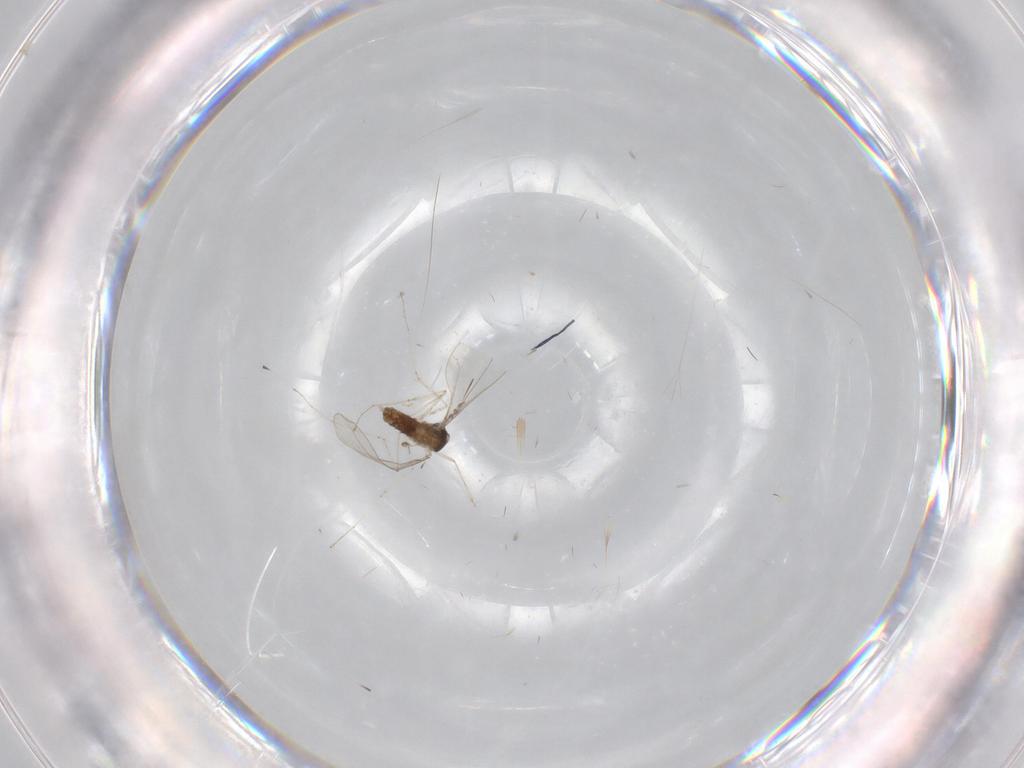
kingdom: Animalia
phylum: Arthropoda
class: Insecta
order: Diptera
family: Cecidomyiidae
